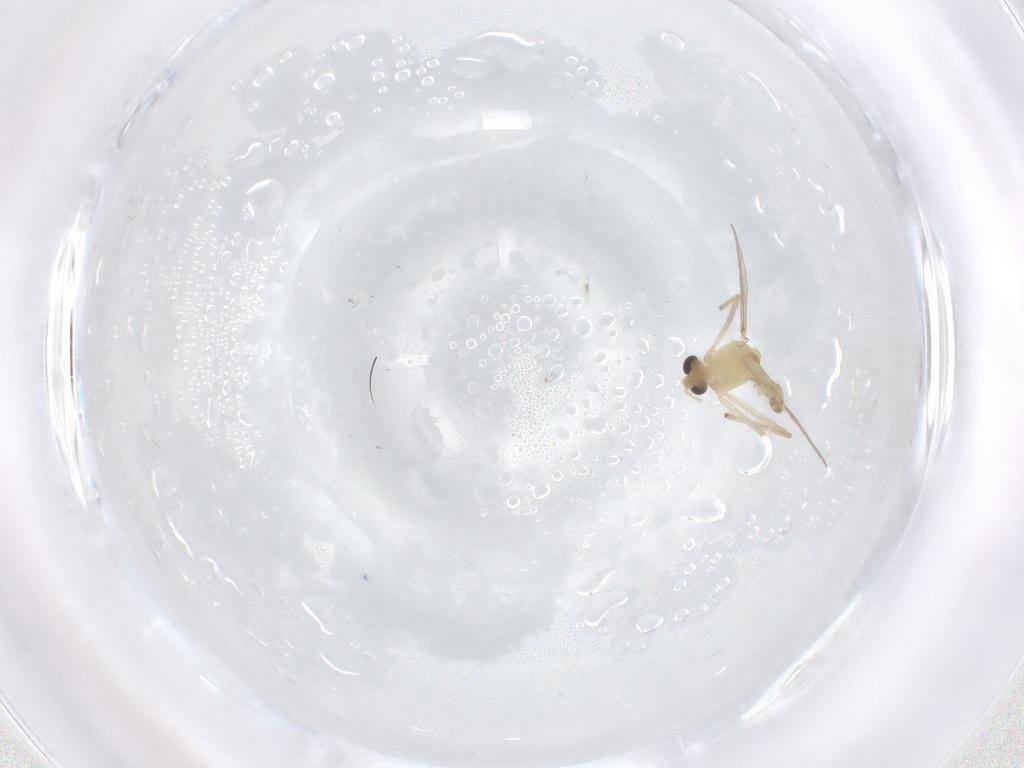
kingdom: Animalia
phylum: Arthropoda
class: Insecta
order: Diptera
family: Chironomidae
